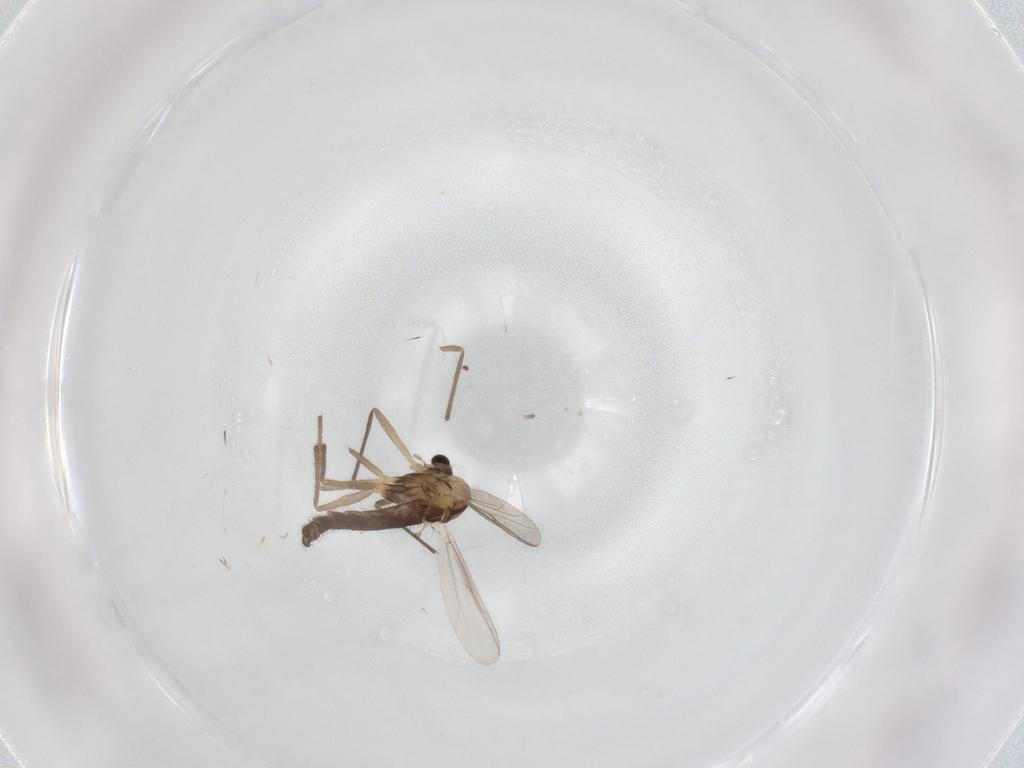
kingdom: Animalia
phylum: Arthropoda
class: Insecta
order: Diptera
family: Chironomidae
